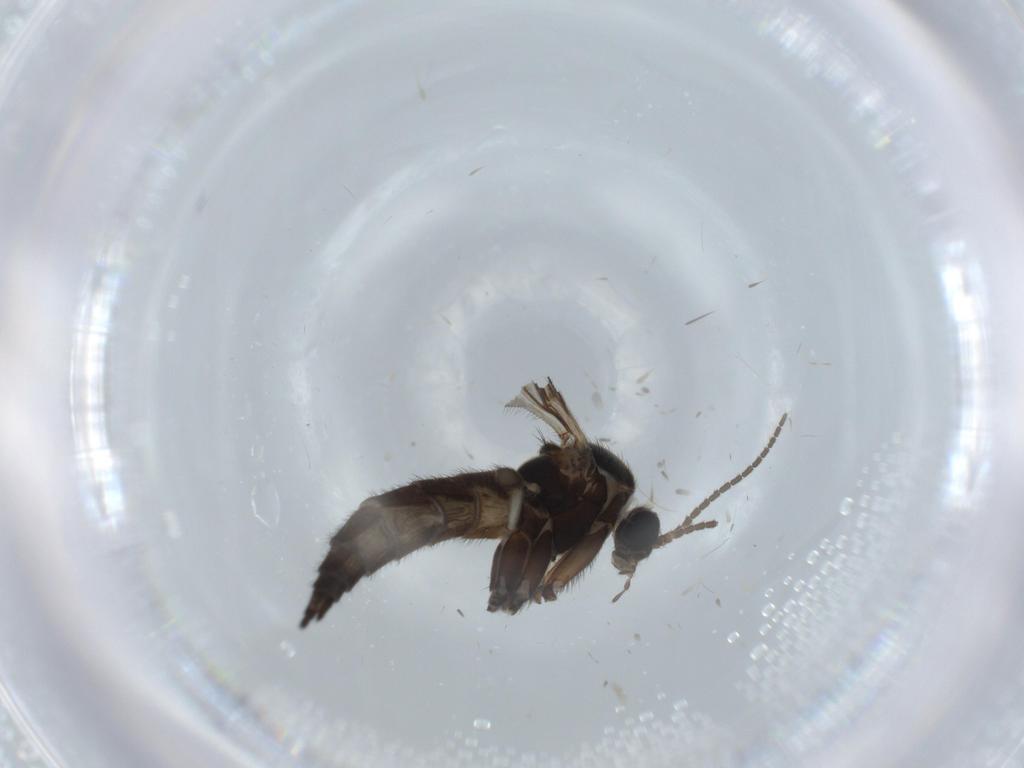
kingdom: Animalia
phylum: Arthropoda
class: Insecta
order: Diptera
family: Sciaridae
